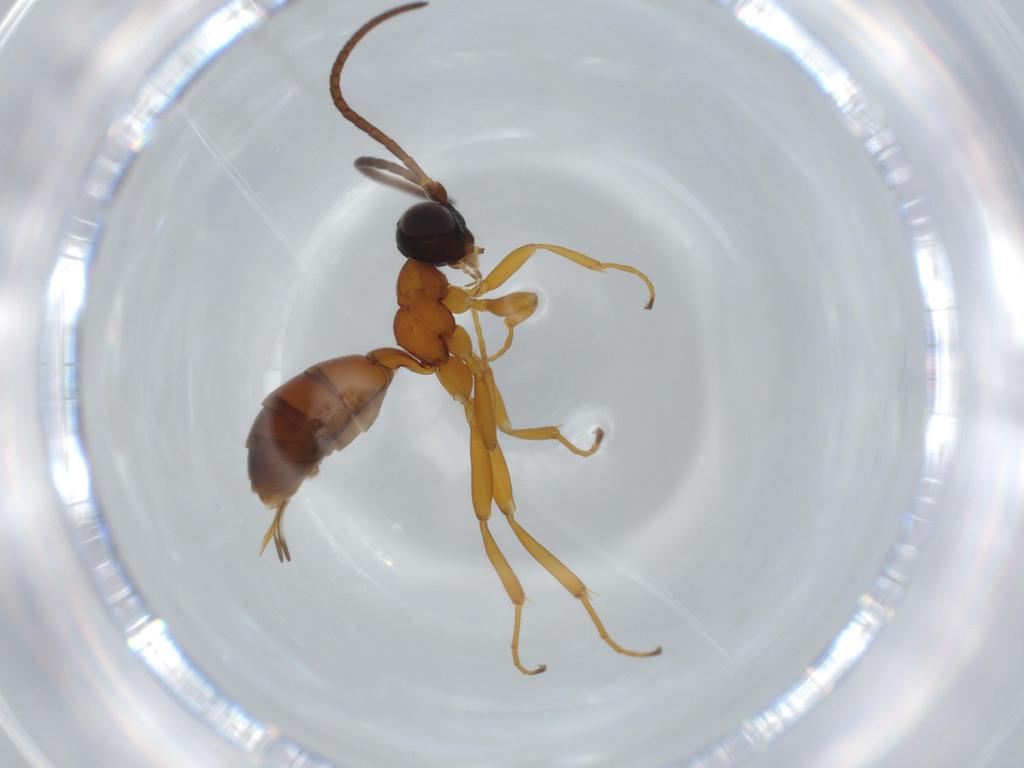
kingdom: Animalia
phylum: Arthropoda
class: Insecta
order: Hymenoptera
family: Ichneumonidae
